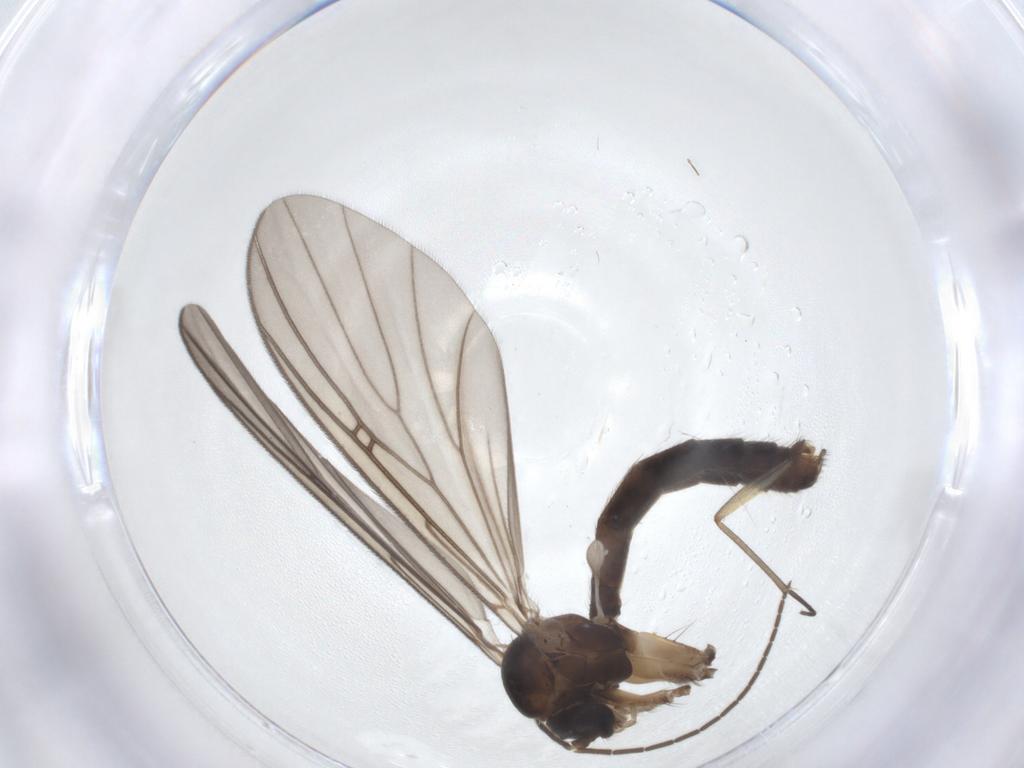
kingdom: Animalia
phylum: Arthropoda
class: Insecta
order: Diptera
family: Chironomidae
